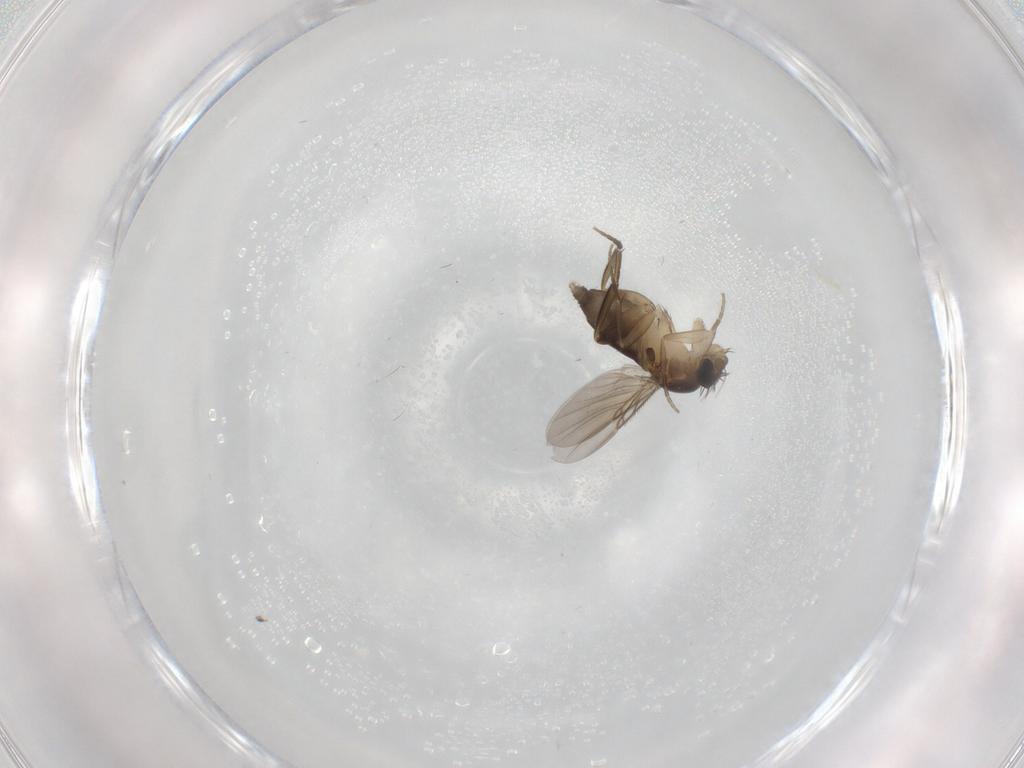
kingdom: Animalia
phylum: Arthropoda
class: Insecta
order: Diptera
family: Phoridae
